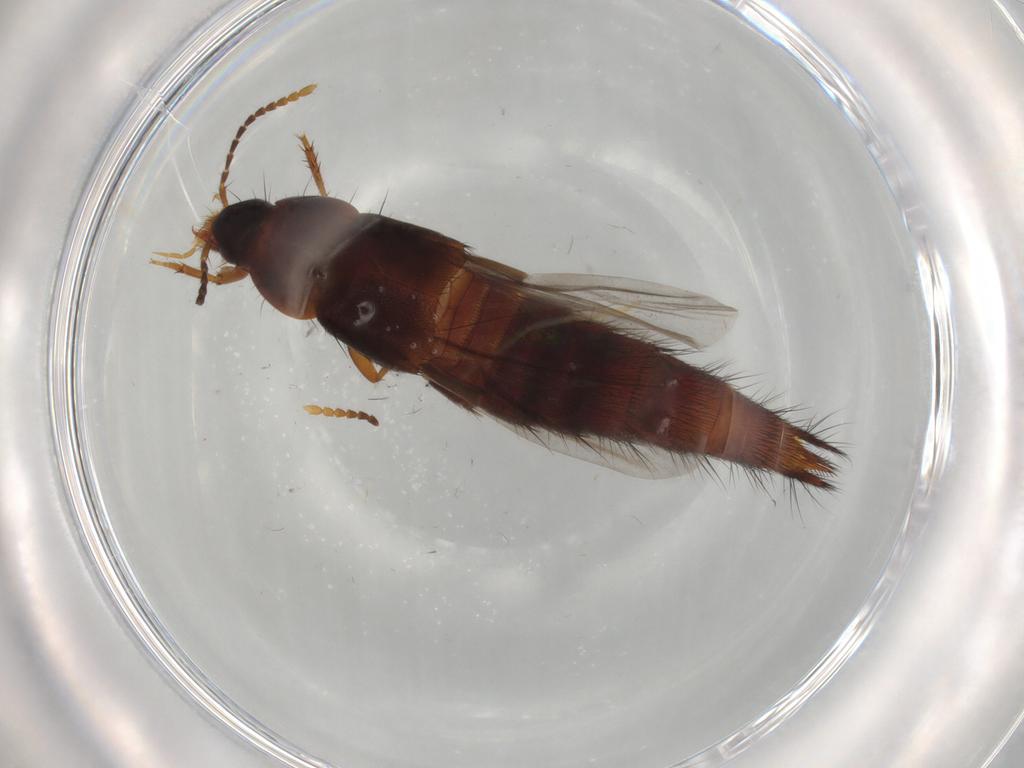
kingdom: Animalia
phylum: Arthropoda
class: Insecta
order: Coleoptera
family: Staphylinidae
